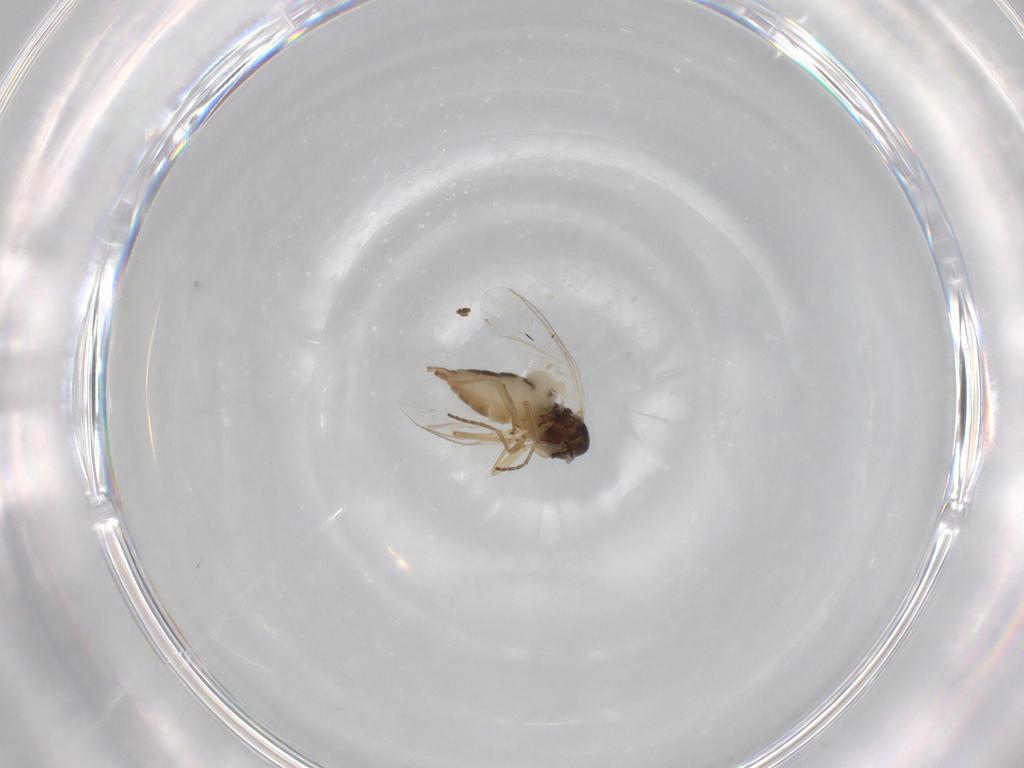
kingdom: Animalia
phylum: Arthropoda
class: Insecta
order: Diptera
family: Sciaridae
